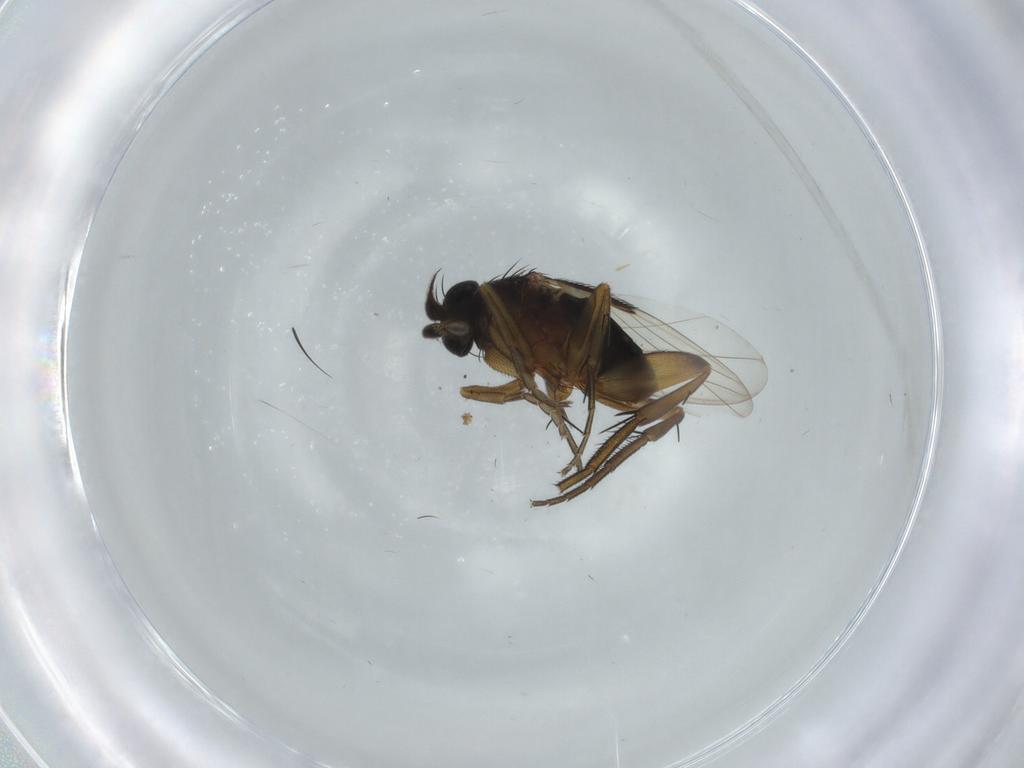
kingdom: Animalia
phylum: Arthropoda
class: Insecta
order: Diptera
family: Phoridae
